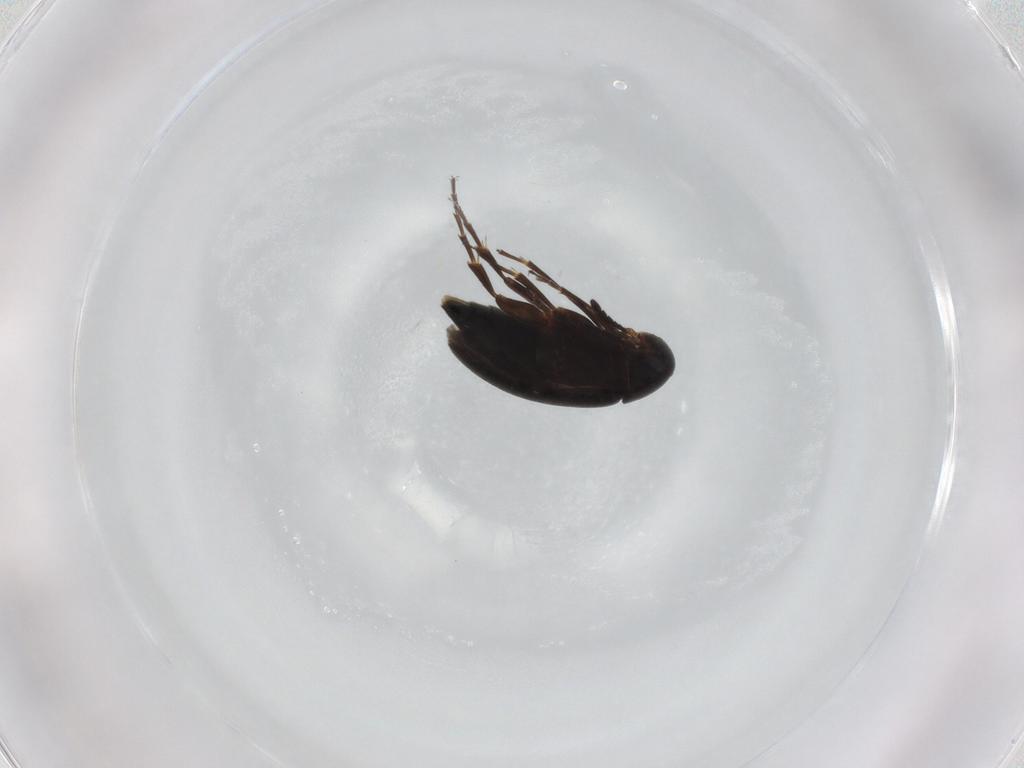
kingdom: Animalia
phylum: Arthropoda
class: Insecta
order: Coleoptera
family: Scraptiidae
